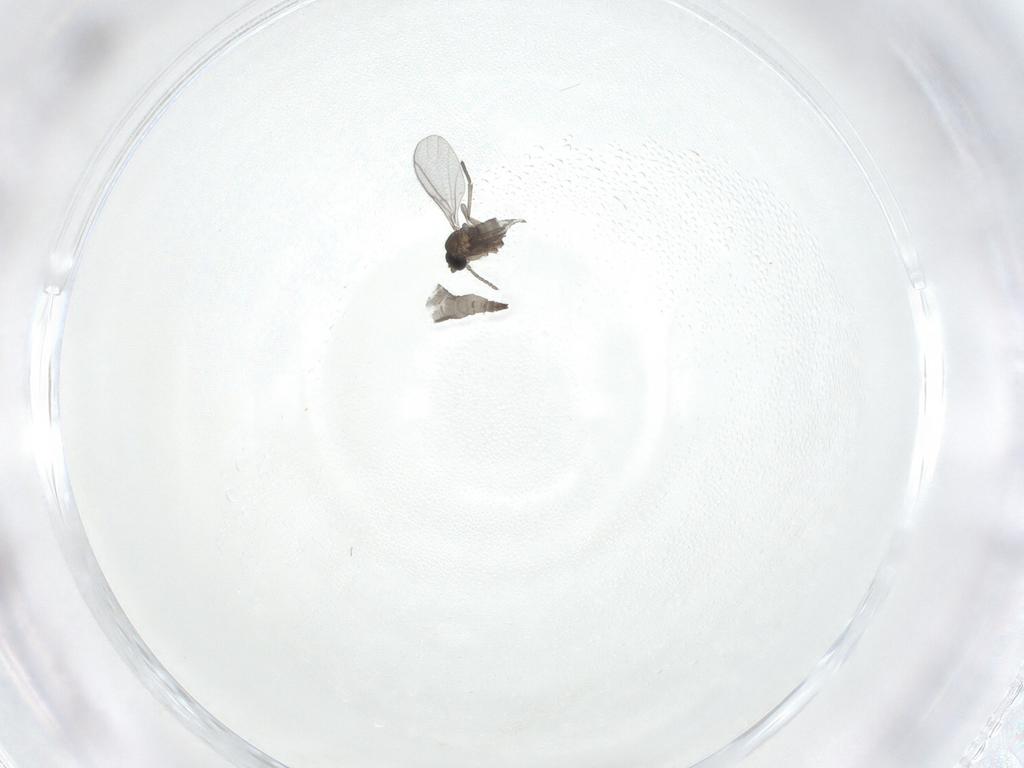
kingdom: Animalia
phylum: Arthropoda
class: Insecta
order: Diptera
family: Sciaridae
